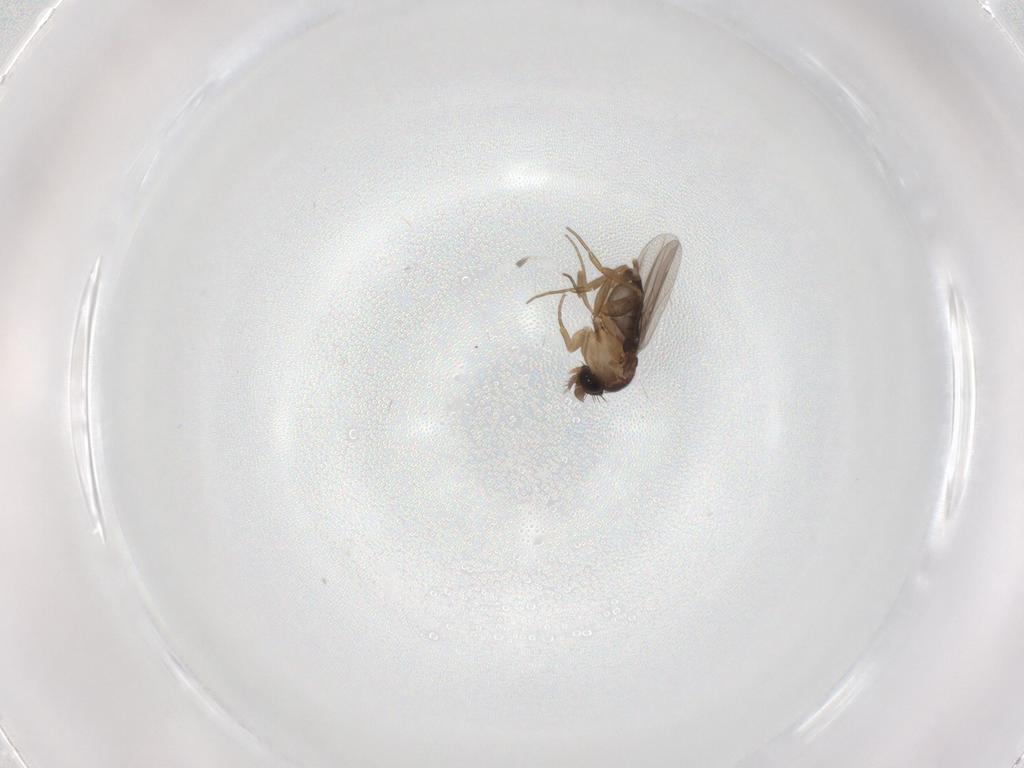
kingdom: Animalia
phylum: Arthropoda
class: Insecta
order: Diptera
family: Phoridae
